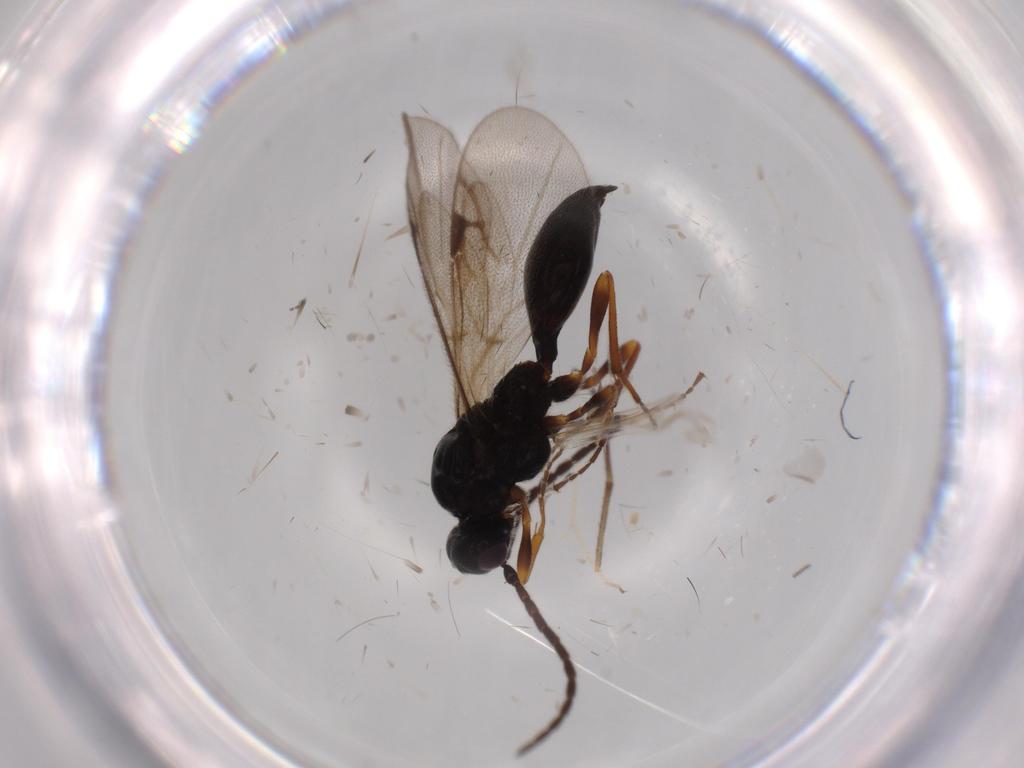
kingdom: Animalia
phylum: Arthropoda
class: Insecta
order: Hymenoptera
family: Proctotrupidae
